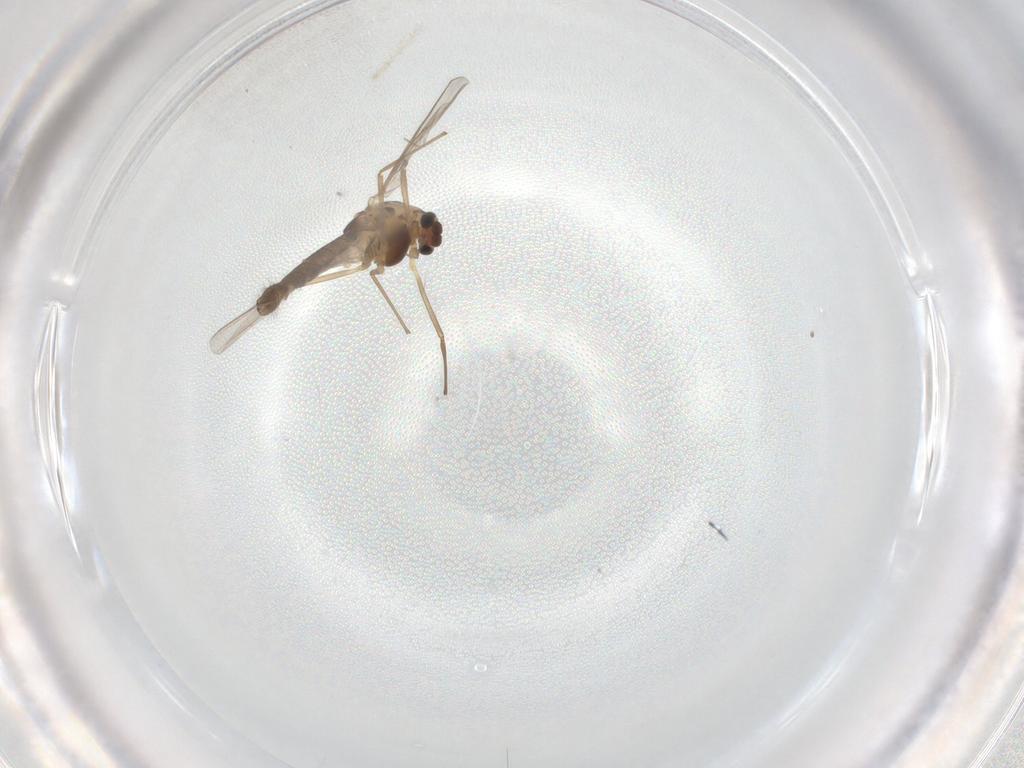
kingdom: Animalia
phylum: Arthropoda
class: Insecta
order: Diptera
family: Chironomidae
